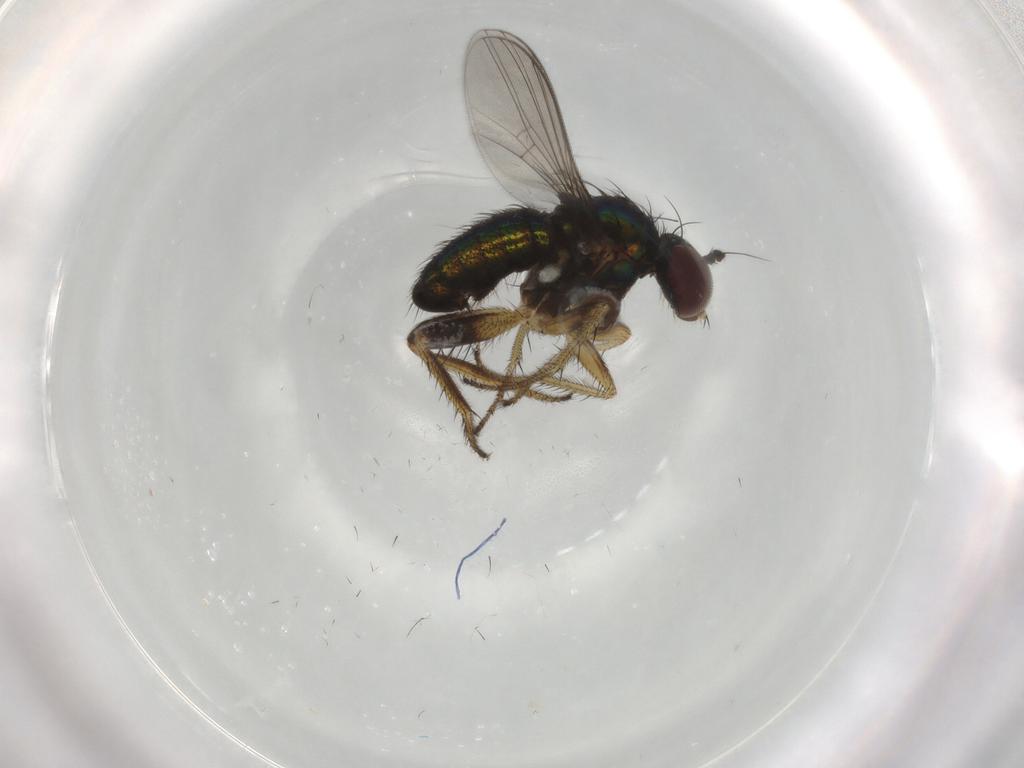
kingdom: Animalia
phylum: Arthropoda
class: Insecta
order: Diptera
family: Dolichopodidae
